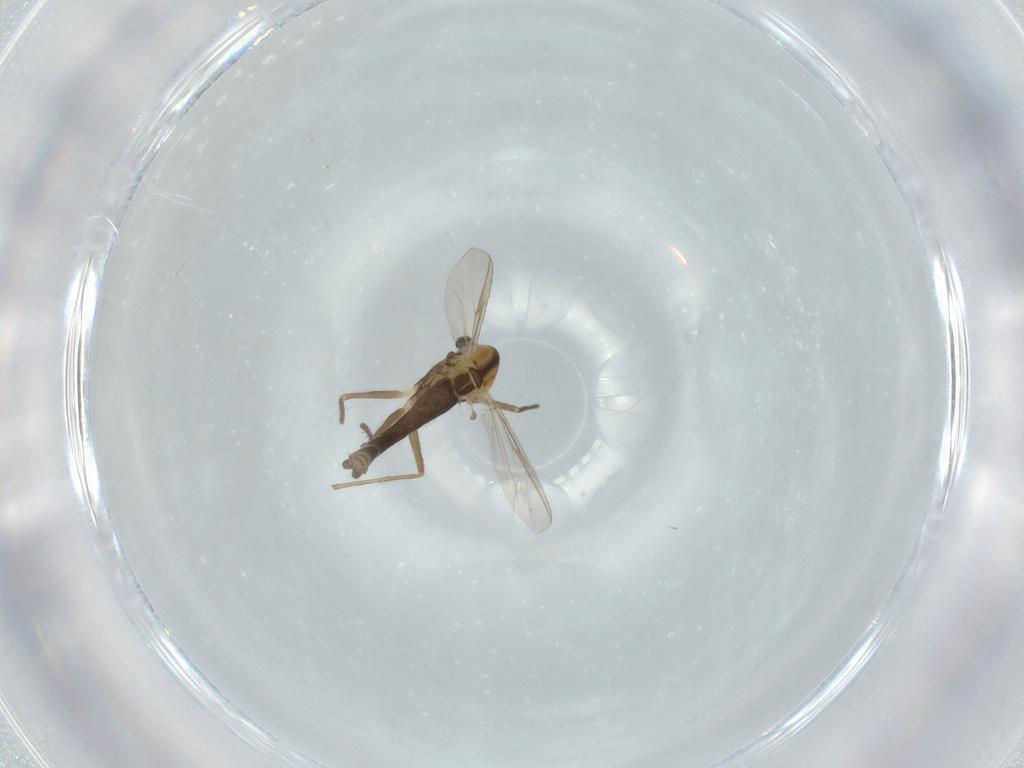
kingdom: Animalia
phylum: Arthropoda
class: Insecta
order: Diptera
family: Chironomidae
